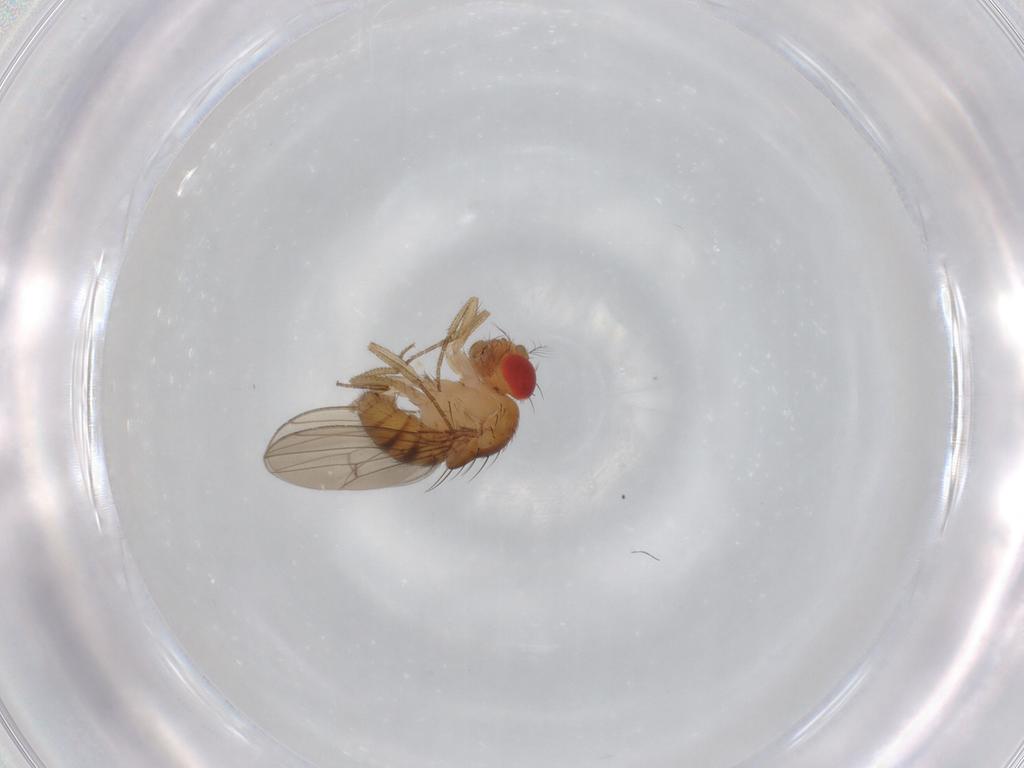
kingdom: Animalia
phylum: Arthropoda
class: Insecta
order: Diptera
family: Drosophilidae
